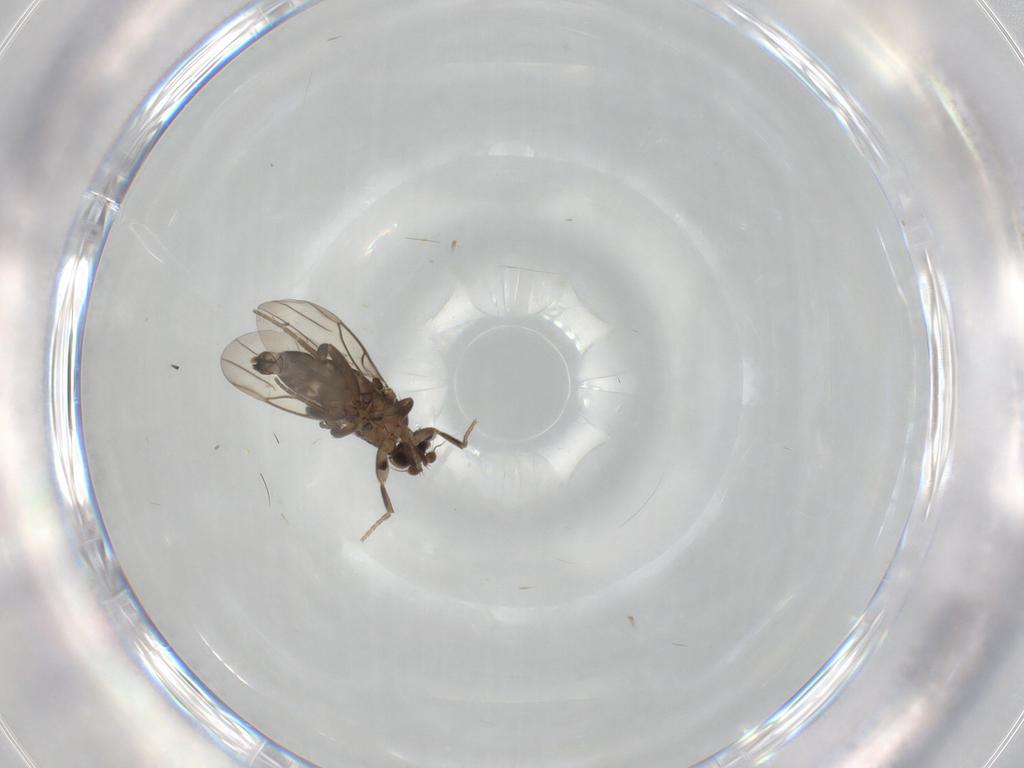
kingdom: Animalia
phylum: Arthropoda
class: Insecta
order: Diptera
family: Phoridae
